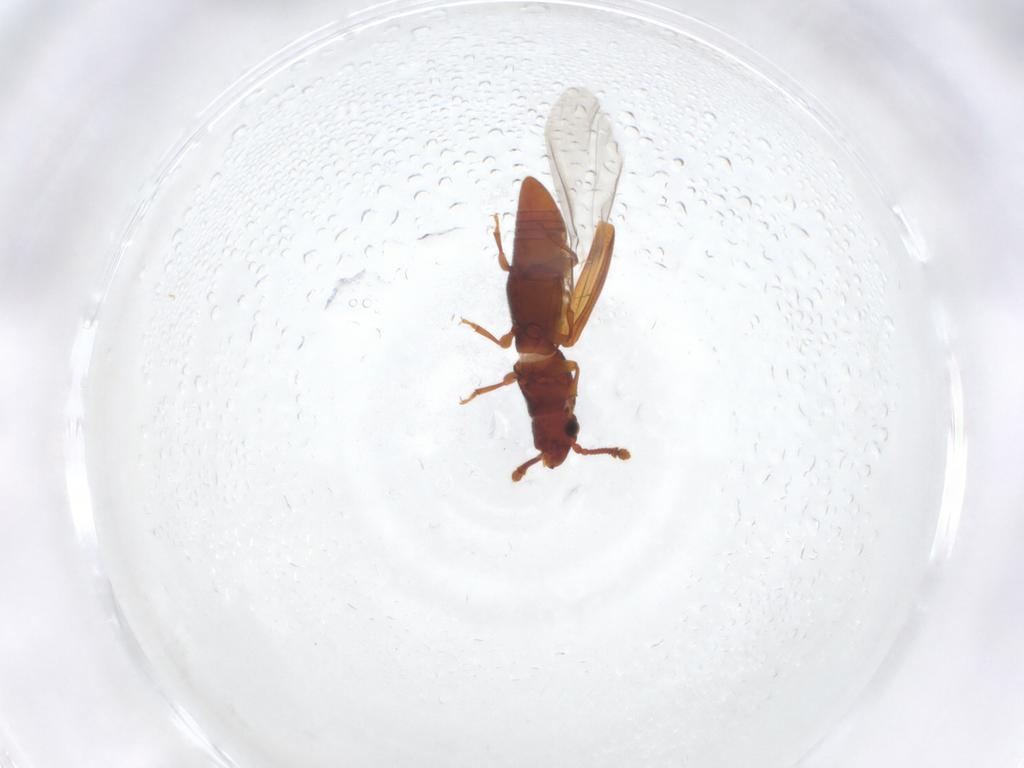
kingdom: Animalia
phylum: Arthropoda
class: Insecta
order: Coleoptera
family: Monotomidae
